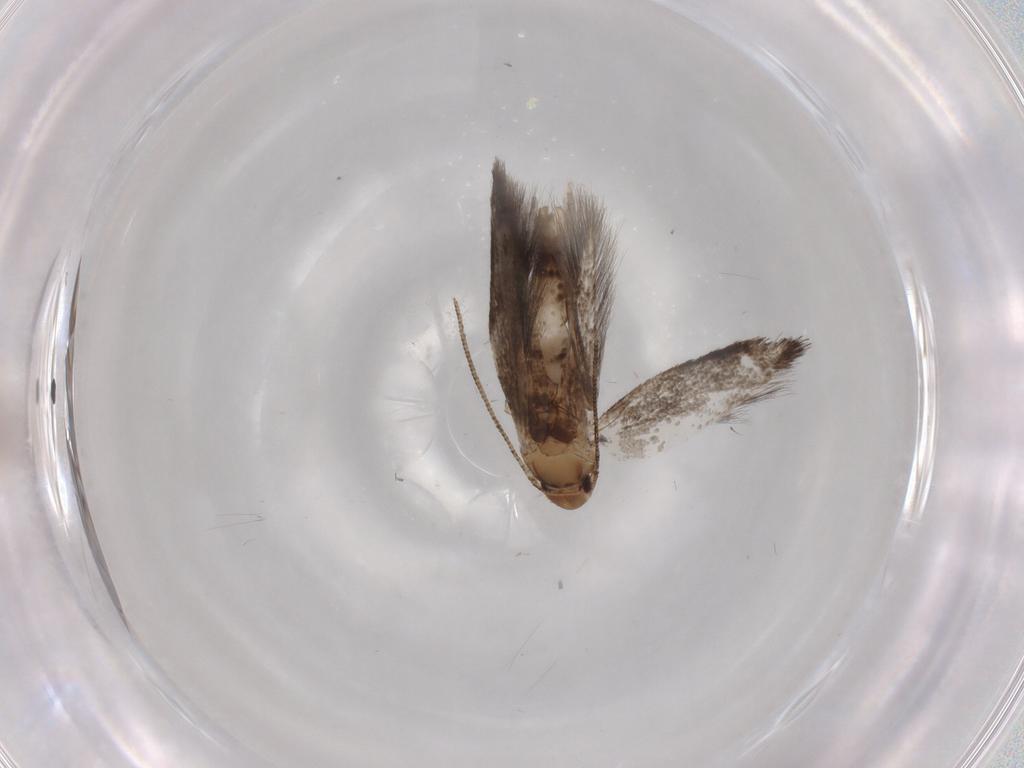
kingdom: Animalia
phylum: Arthropoda
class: Insecta
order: Lepidoptera
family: Gelechiidae
